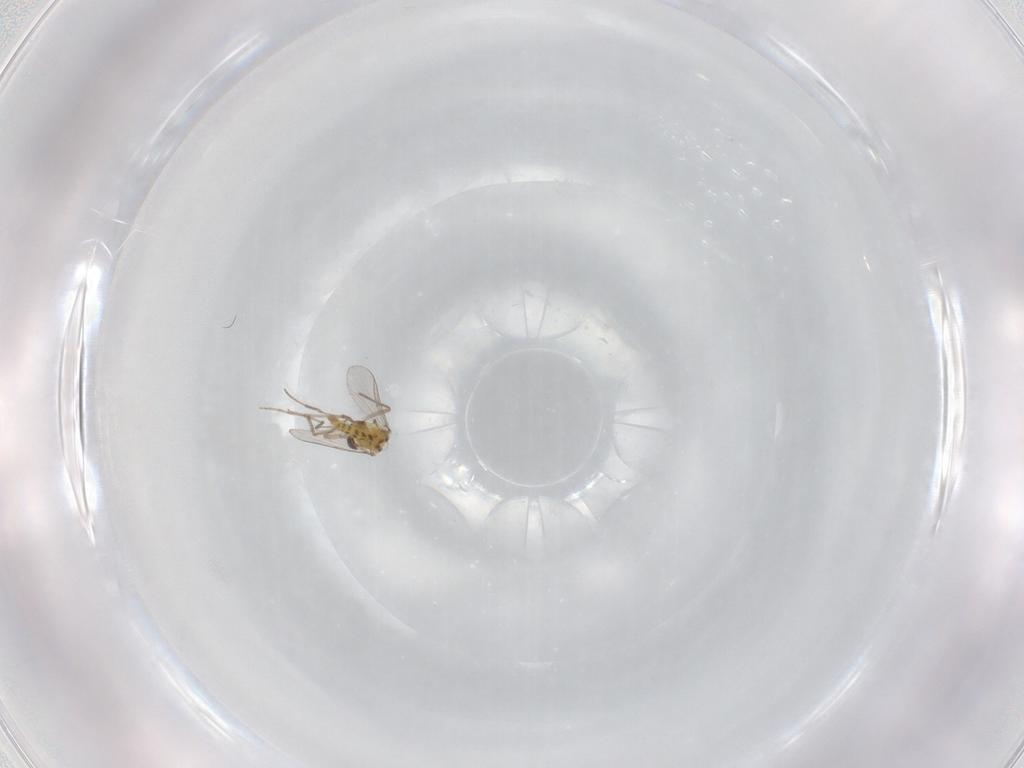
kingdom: Animalia
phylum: Arthropoda
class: Insecta
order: Diptera
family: Chironomidae
